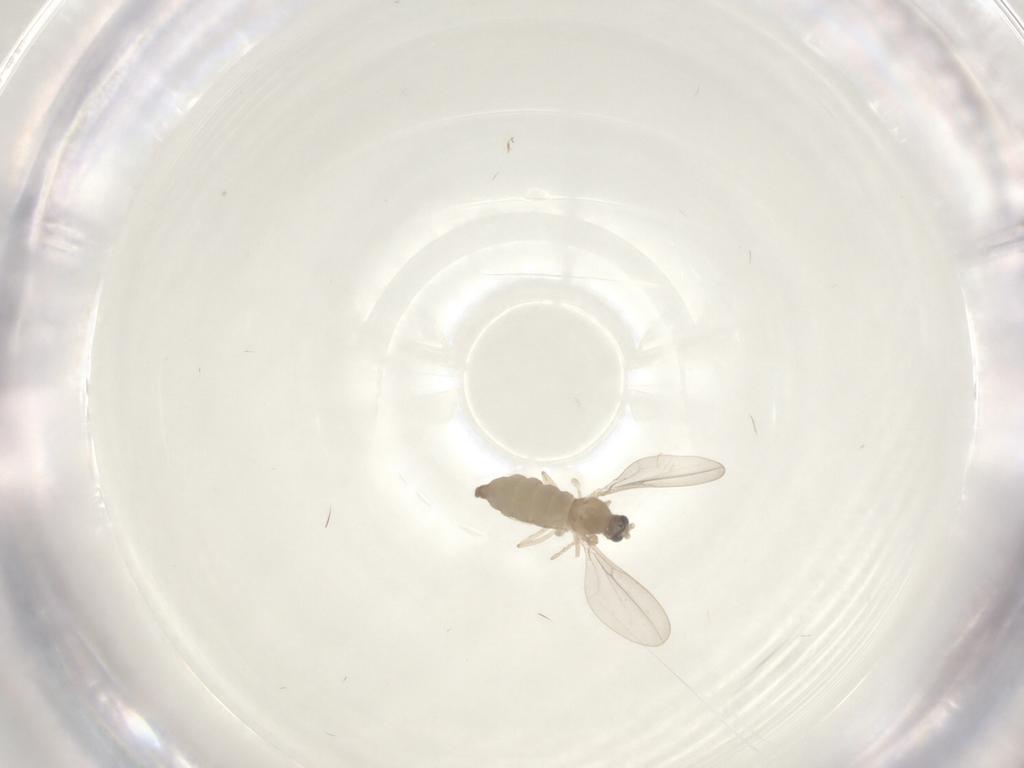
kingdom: Animalia
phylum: Arthropoda
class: Insecta
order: Diptera
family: Cecidomyiidae
